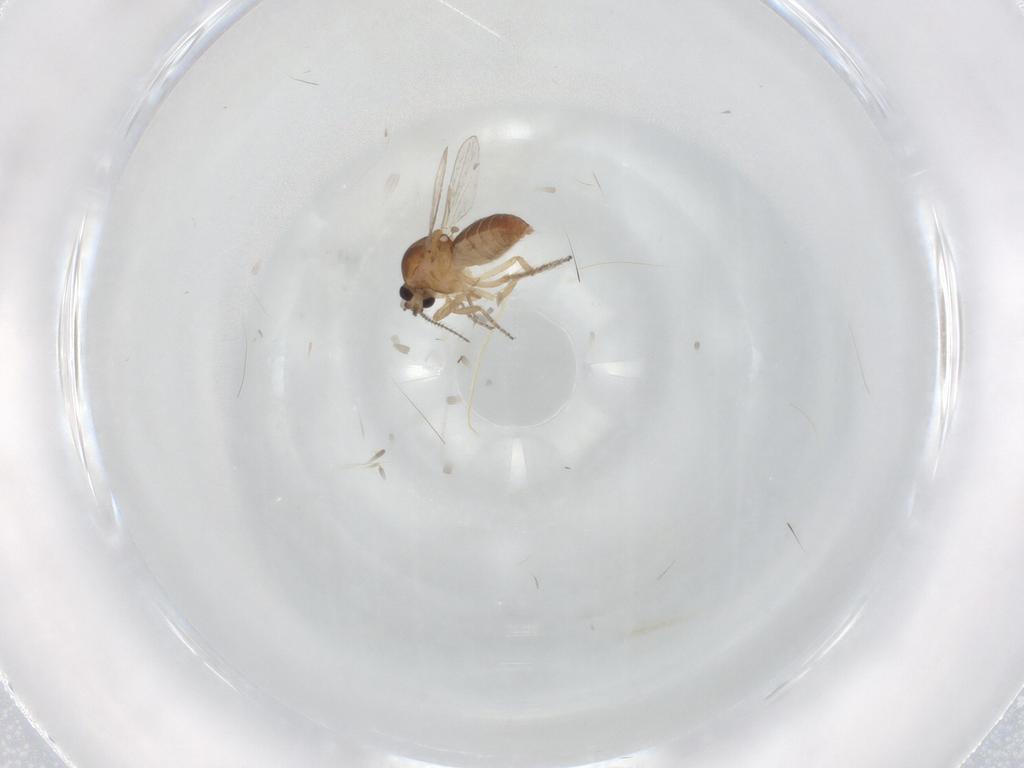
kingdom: Animalia
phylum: Arthropoda
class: Insecta
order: Diptera
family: Ceratopogonidae
